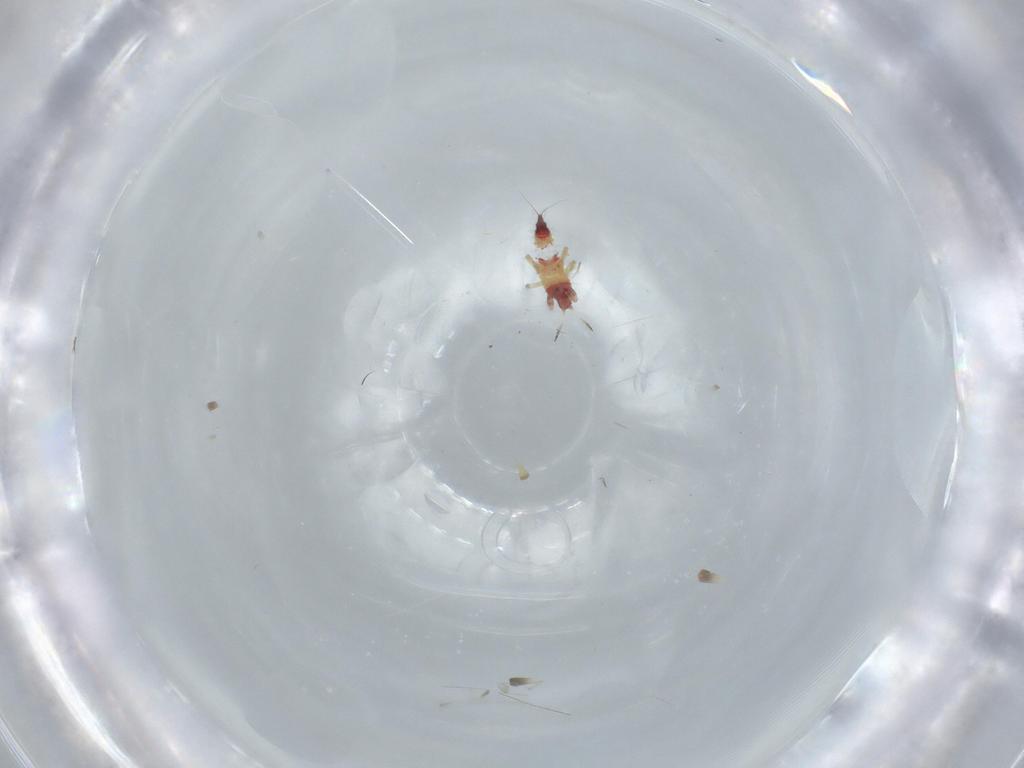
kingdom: Animalia
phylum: Arthropoda
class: Insecta
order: Thysanoptera
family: Phlaeothripidae
